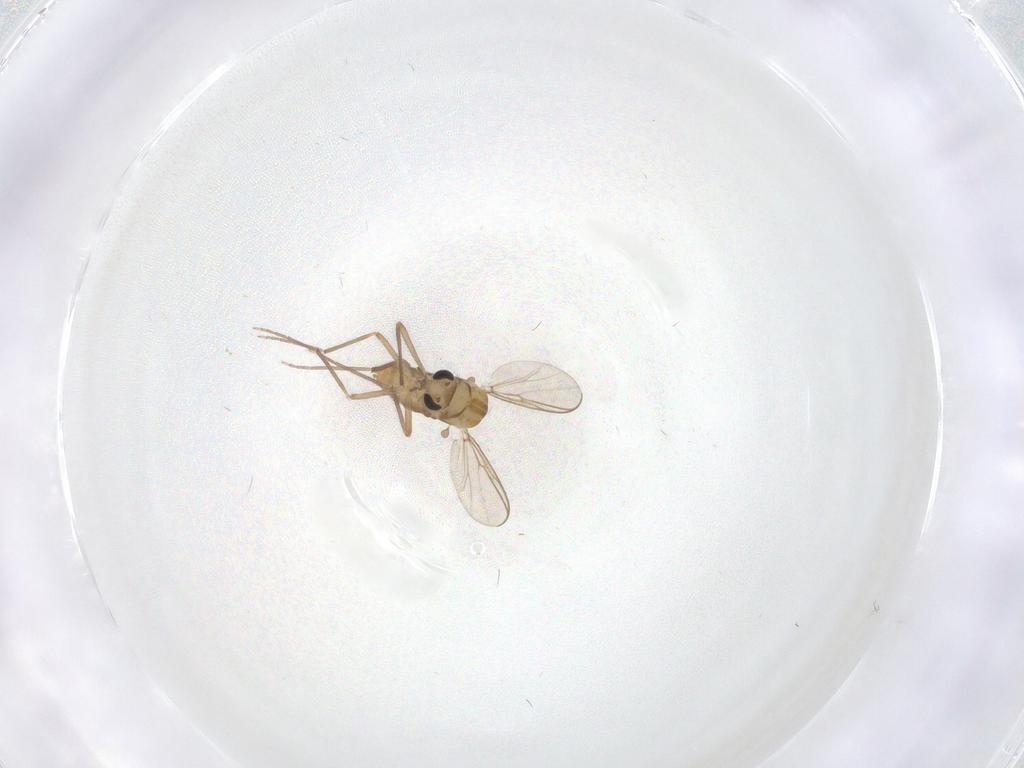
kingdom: Animalia
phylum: Arthropoda
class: Insecta
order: Diptera
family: Chironomidae
